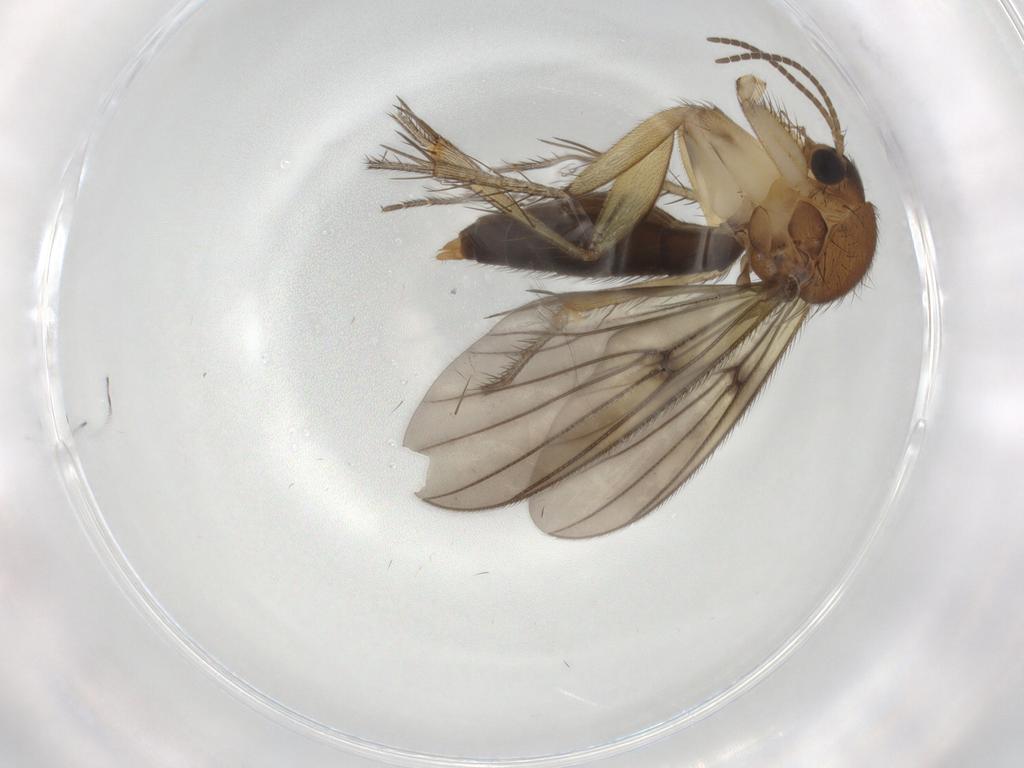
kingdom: Animalia
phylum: Arthropoda
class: Insecta
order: Diptera
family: Mycetophilidae
